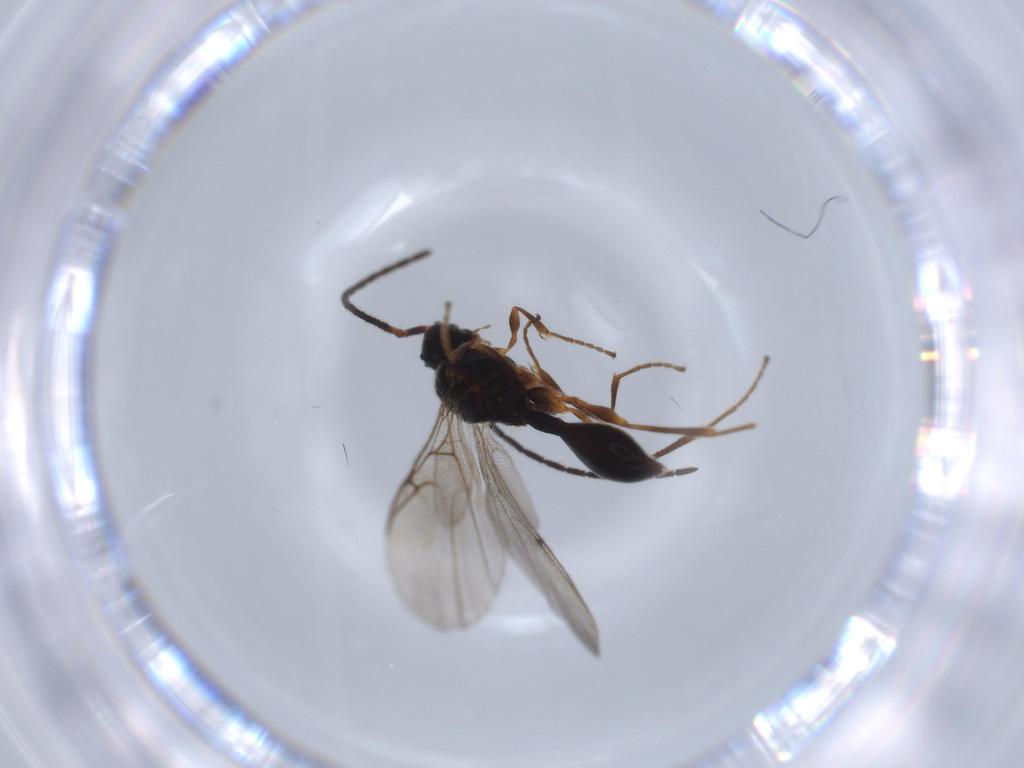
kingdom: Animalia
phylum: Arthropoda
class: Insecta
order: Hymenoptera
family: Diapriidae
